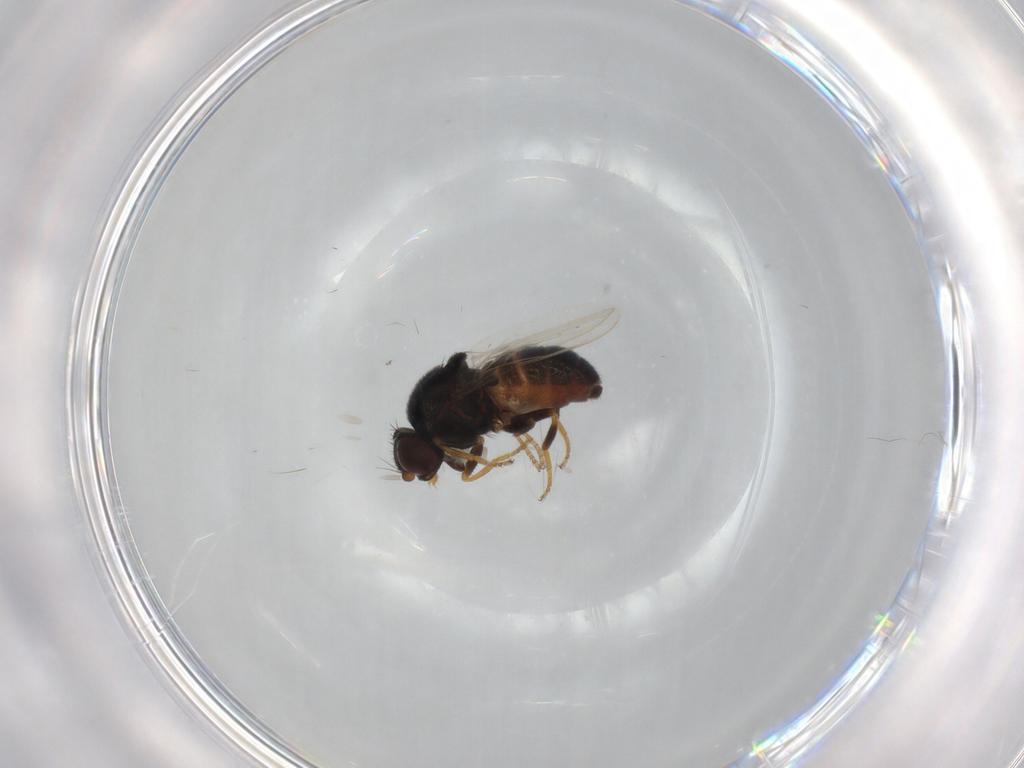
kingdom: Animalia
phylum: Arthropoda
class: Insecta
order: Diptera
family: Chloropidae
